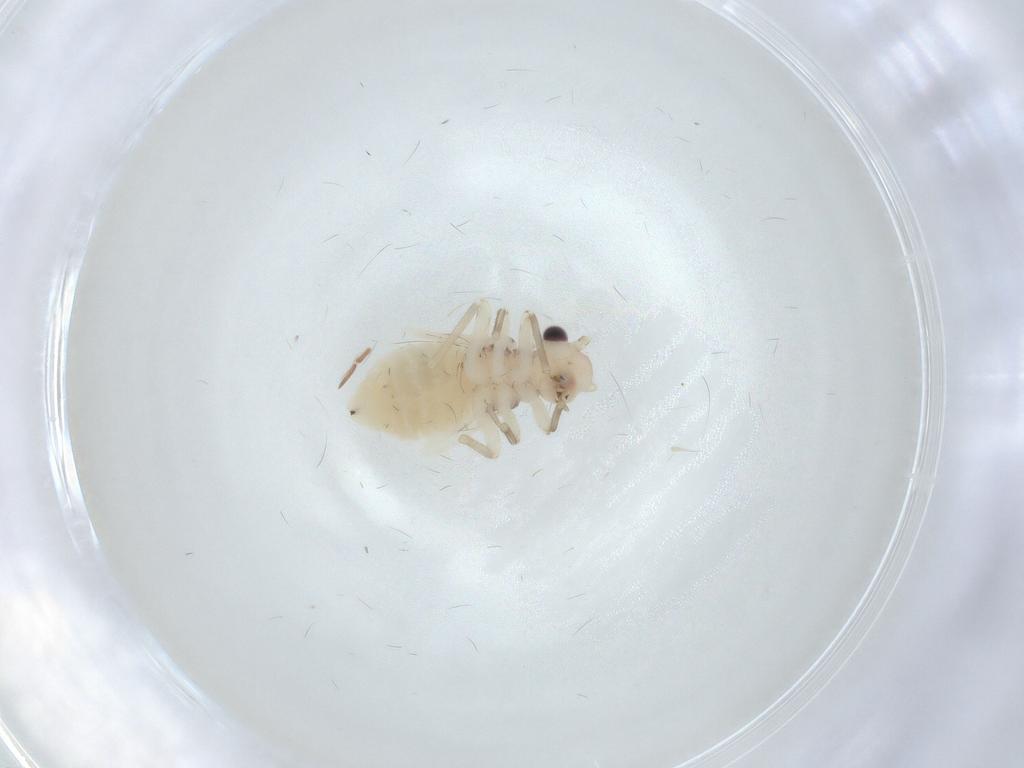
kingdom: Animalia
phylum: Arthropoda
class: Insecta
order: Psocodea
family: Caeciliusidae
